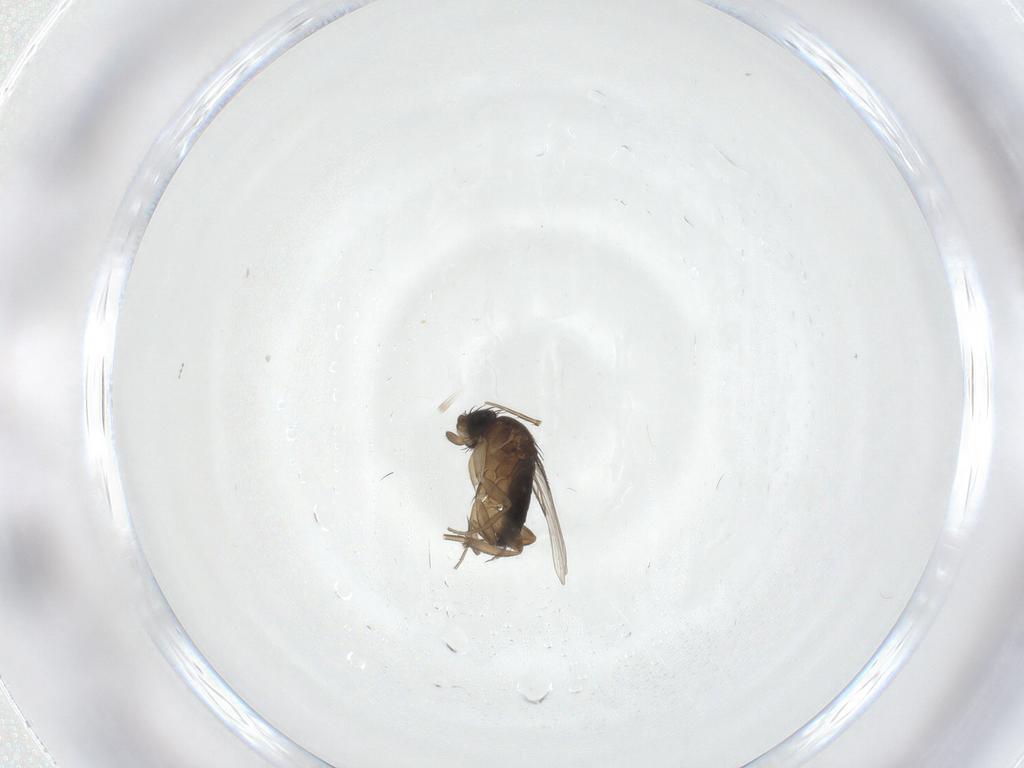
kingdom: Animalia
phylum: Arthropoda
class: Insecta
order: Diptera
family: Cecidomyiidae
